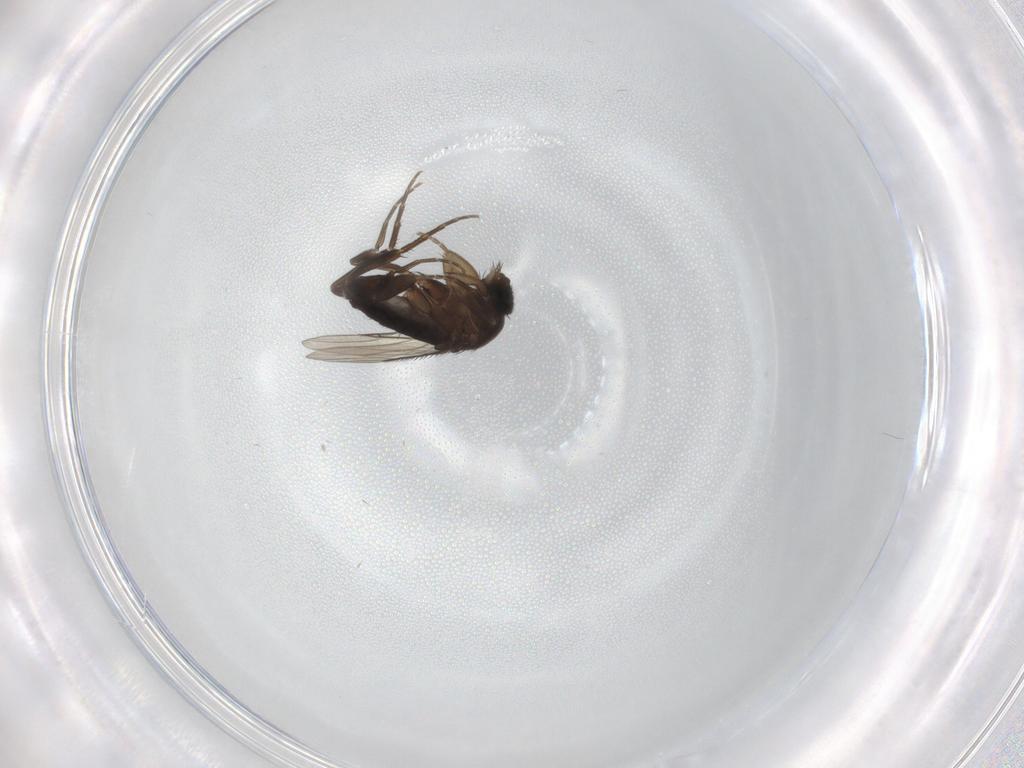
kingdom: Animalia
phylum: Arthropoda
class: Insecta
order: Diptera
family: Phoridae
